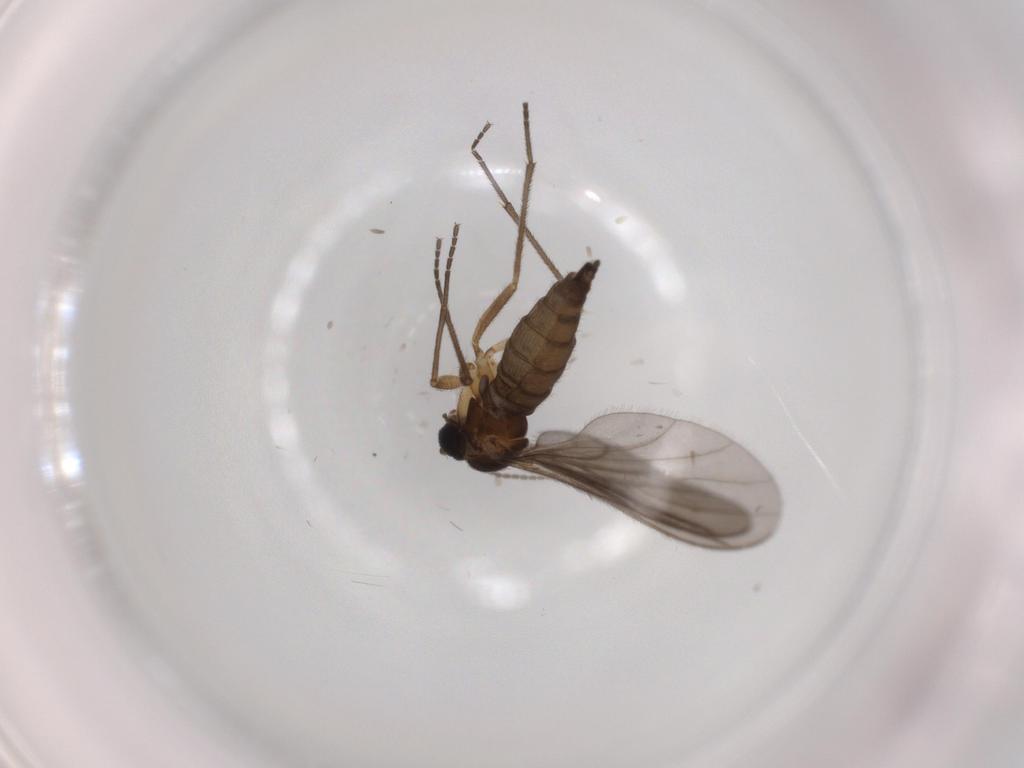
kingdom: Animalia
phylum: Arthropoda
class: Insecta
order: Diptera
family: Sciaridae
